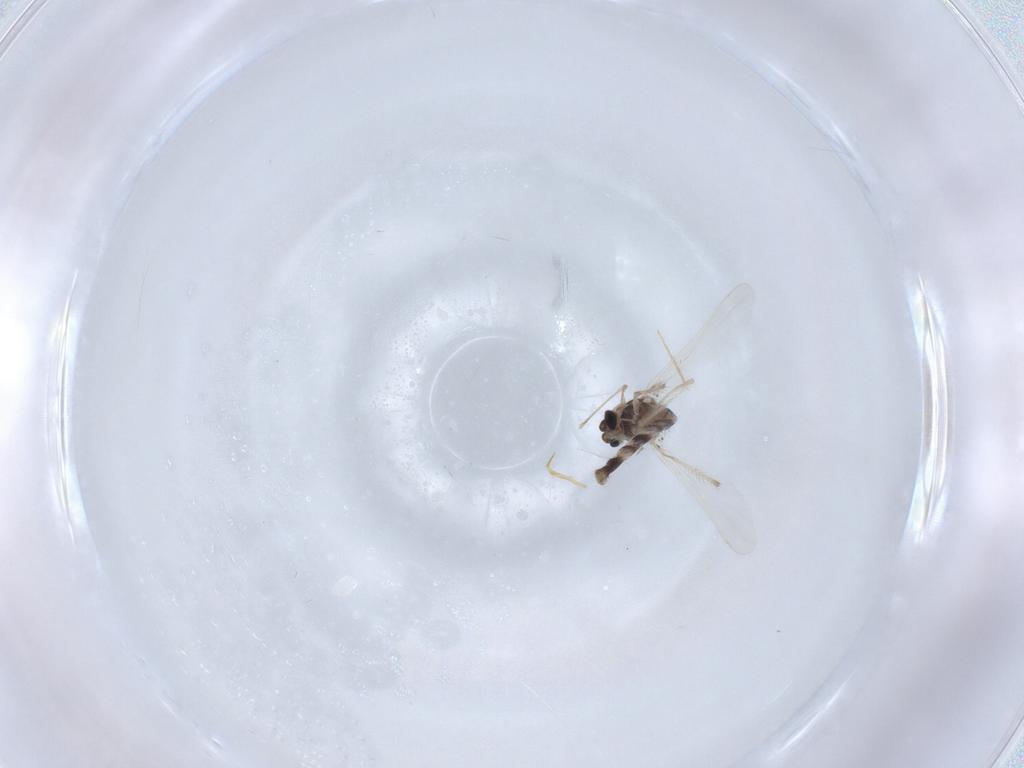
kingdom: Animalia
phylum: Arthropoda
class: Insecta
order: Diptera
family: Chironomidae
